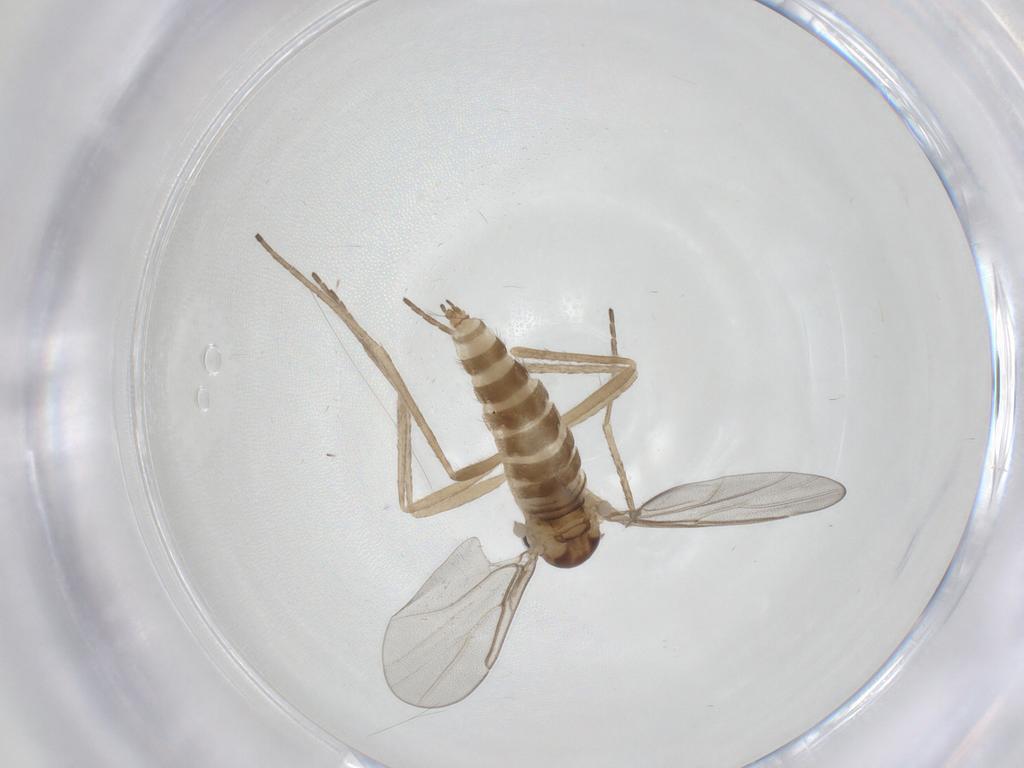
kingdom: Animalia
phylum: Arthropoda
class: Insecta
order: Diptera
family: Cecidomyiidae
